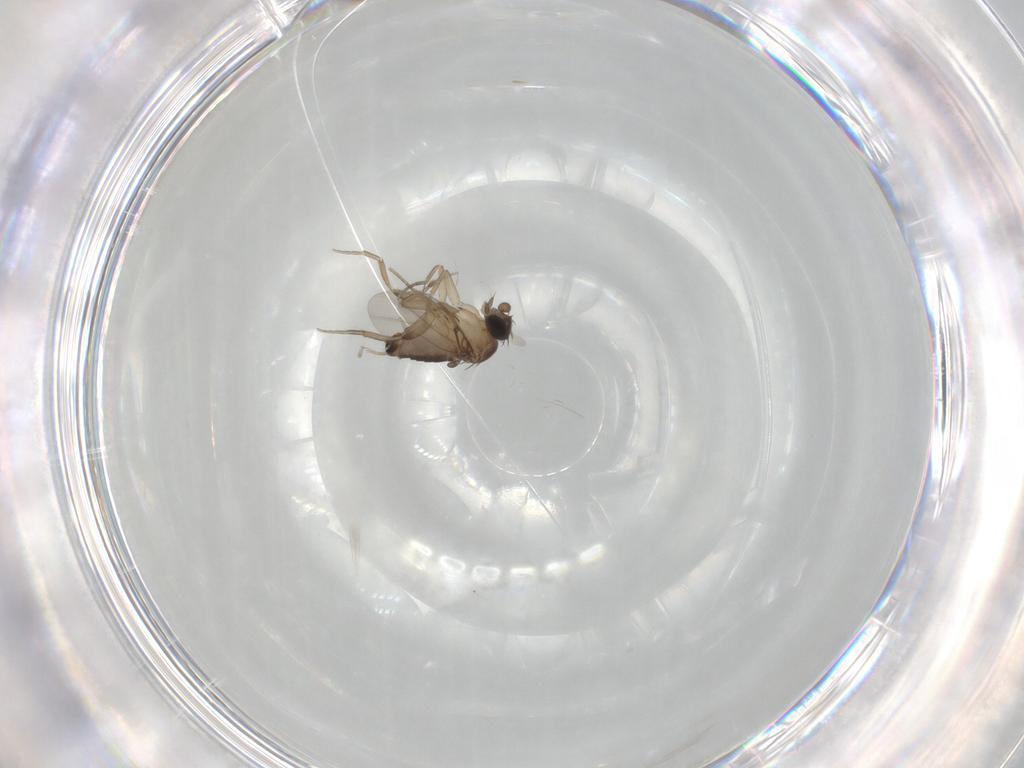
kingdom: Animalia
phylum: Arthropoda
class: Insecta
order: Diptera
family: Phoridae
